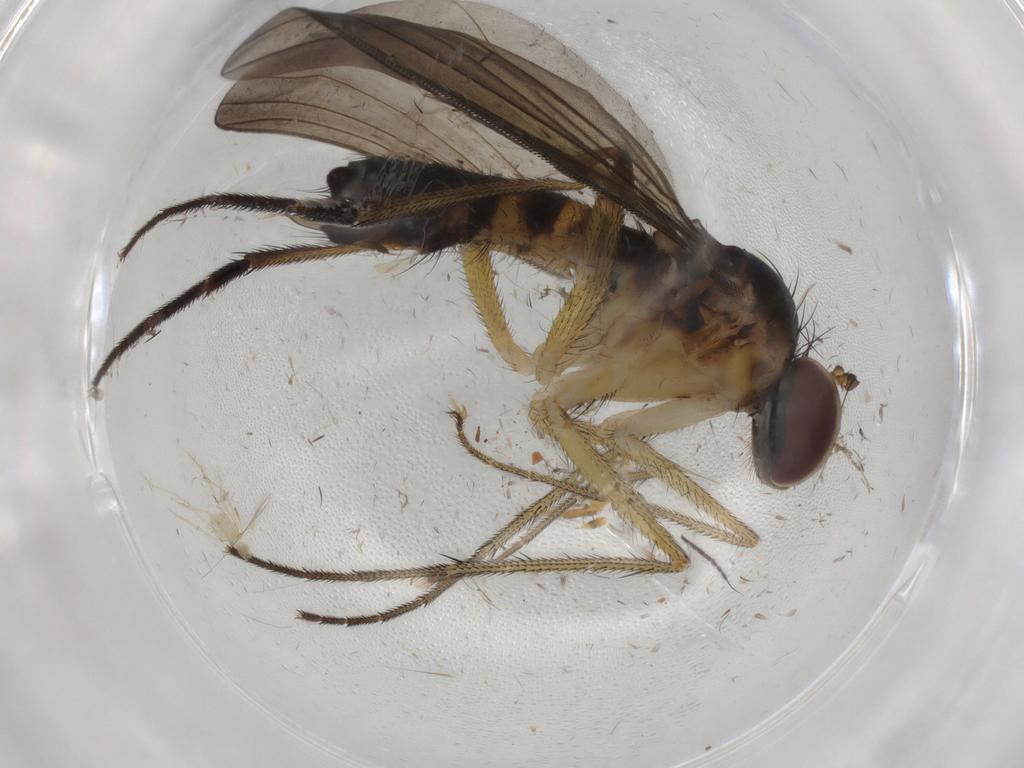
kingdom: Animalia
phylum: Arthropoda
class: Insecta
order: Diptera
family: Dolichopodidae
